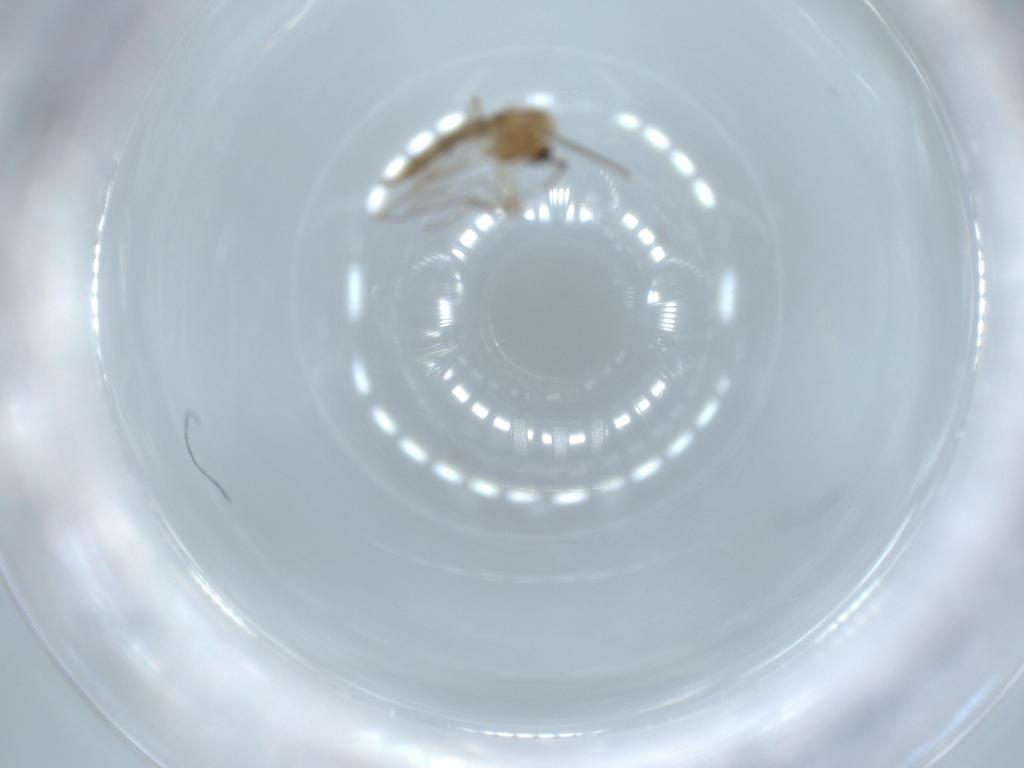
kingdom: Animalia
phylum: Arthropoda
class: Insecta
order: Diptera
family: Chironomidae
